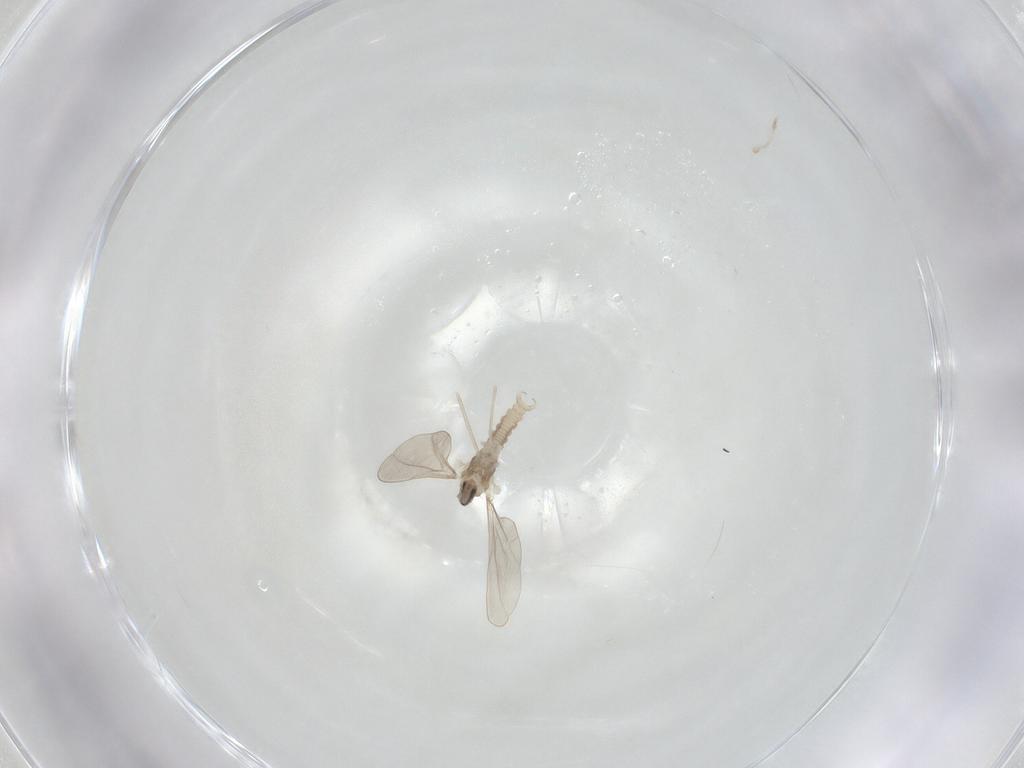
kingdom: Animalia
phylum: Arthropoda
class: Insecta
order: Diptera
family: Cecidomyiidae
